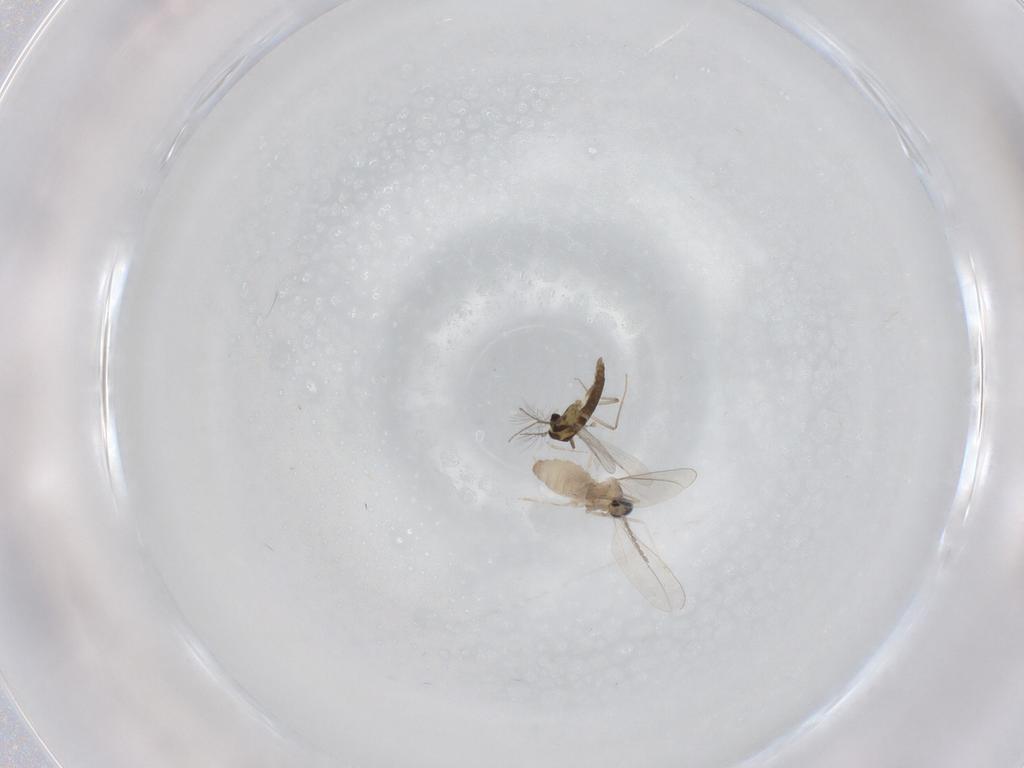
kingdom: Animalia
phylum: Arthropoda
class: Insecta
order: Diptera
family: Cecidomyiidae
